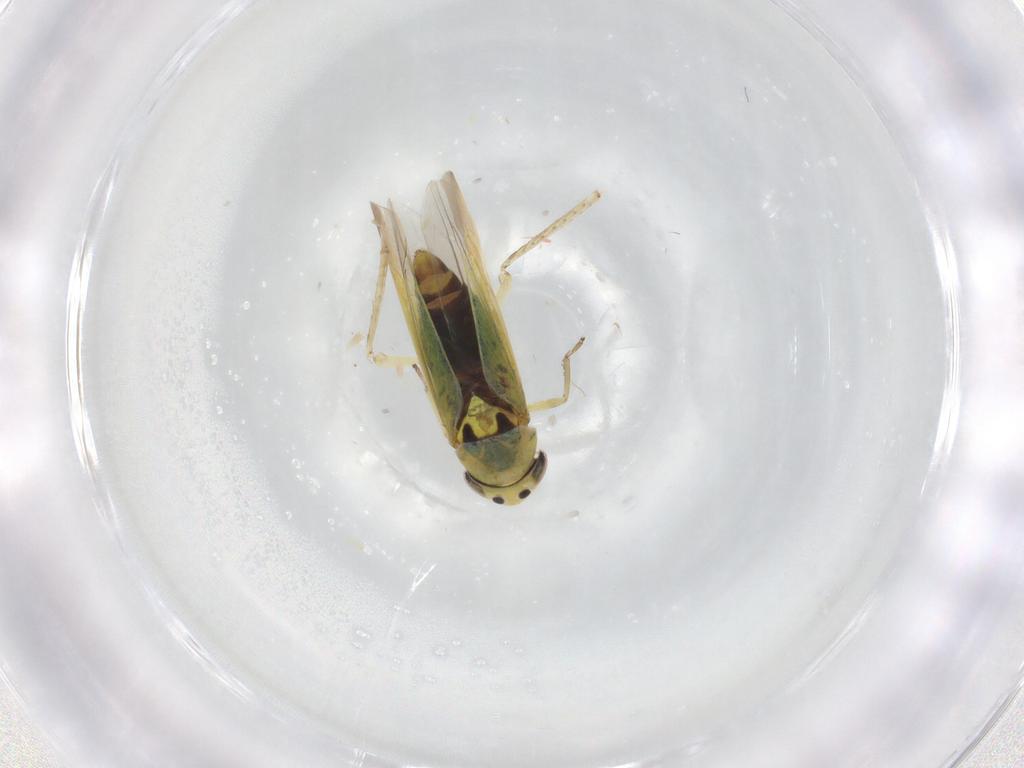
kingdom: Animalia
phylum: Arthropoda
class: Insecta
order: Hemiptera
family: Cicadellidae
